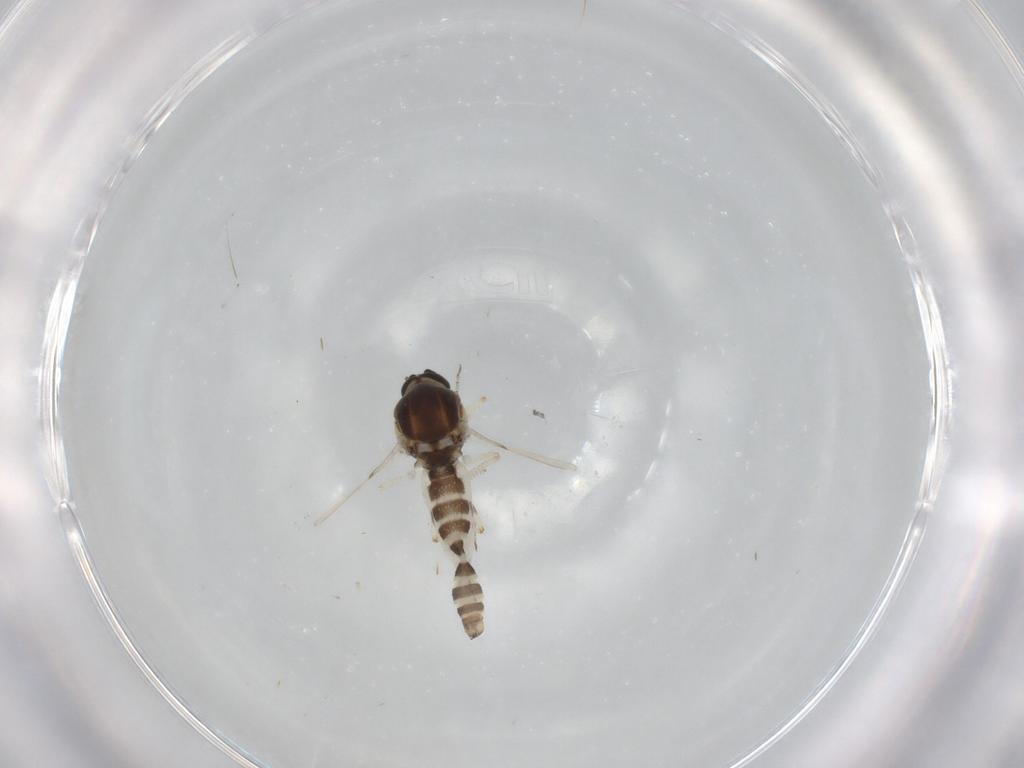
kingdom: Animalia
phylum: Arthropoda
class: Insecta
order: Diptera
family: Ceratopogonidae
